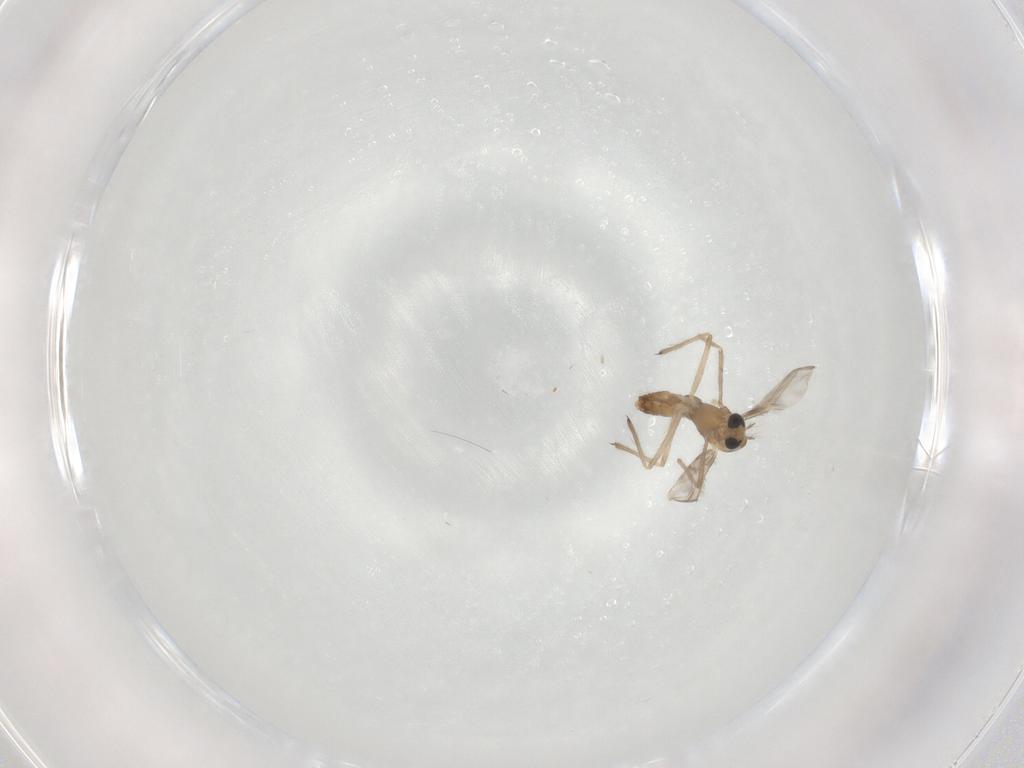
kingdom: Animalia
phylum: Arthropoda
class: Insecta
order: Diptera
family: Chironomidae
